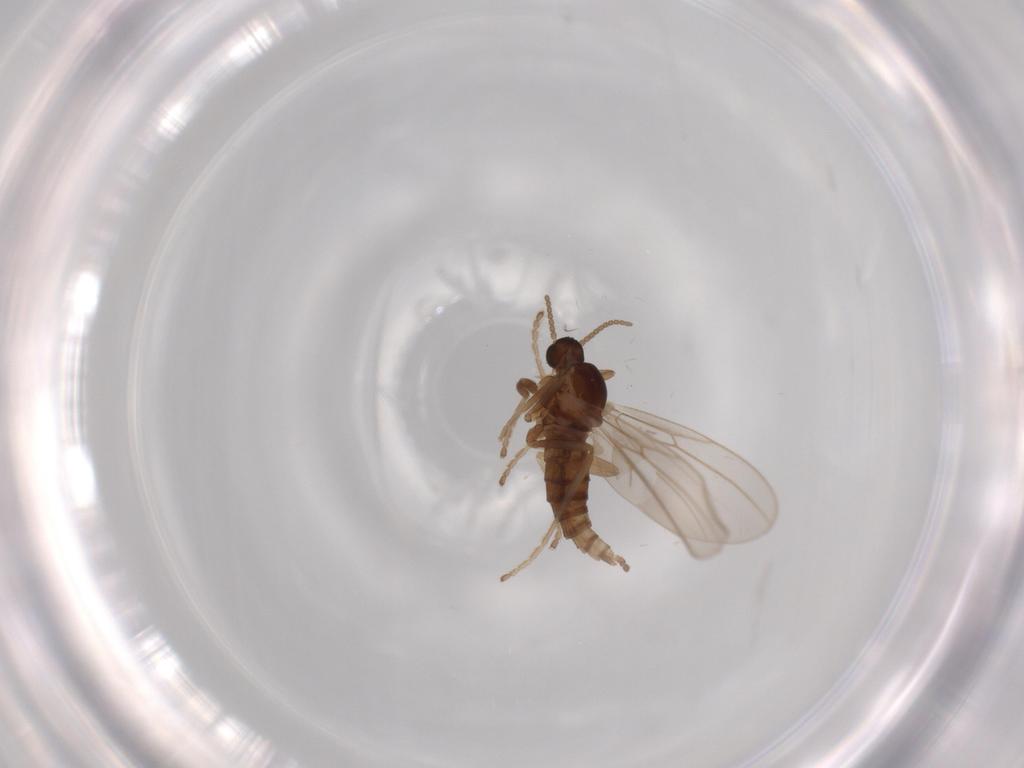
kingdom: Animalia
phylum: Arthropoda
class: Insecta
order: Diptera
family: Cecidomyiidae
